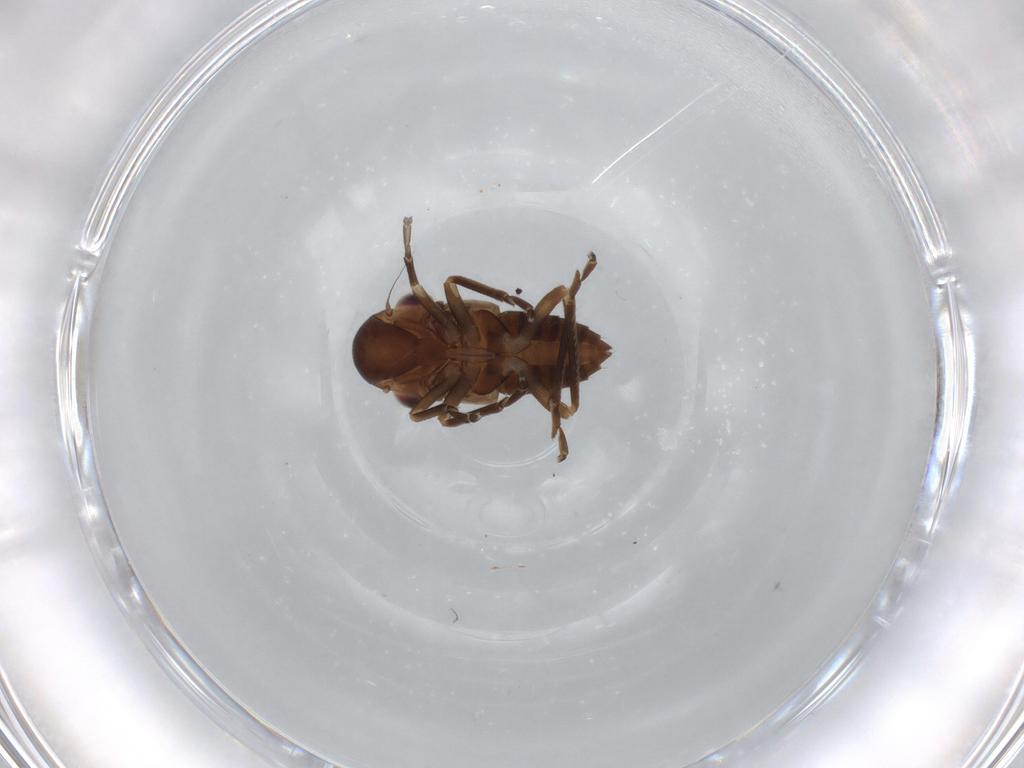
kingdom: Animalia
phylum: Arthropoda
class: Insecta
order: Hemiptera
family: Cicadellidae
